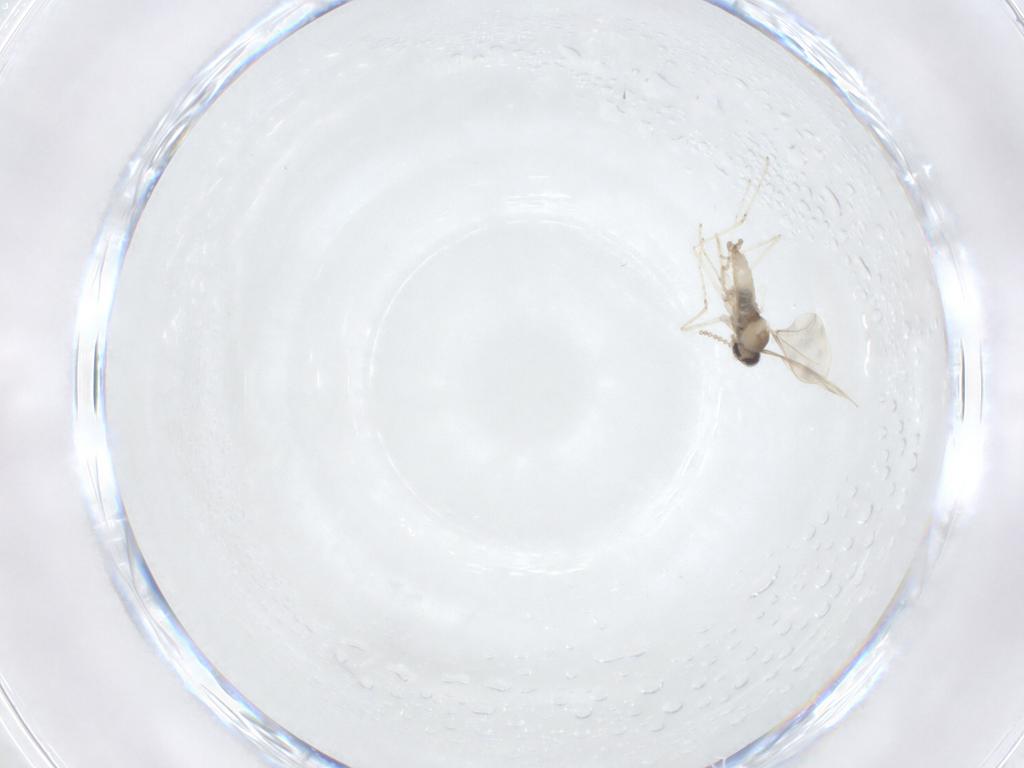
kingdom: Animalia
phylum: Arthropoda
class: Insecta
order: Diptera
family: Cecidomyiidae
